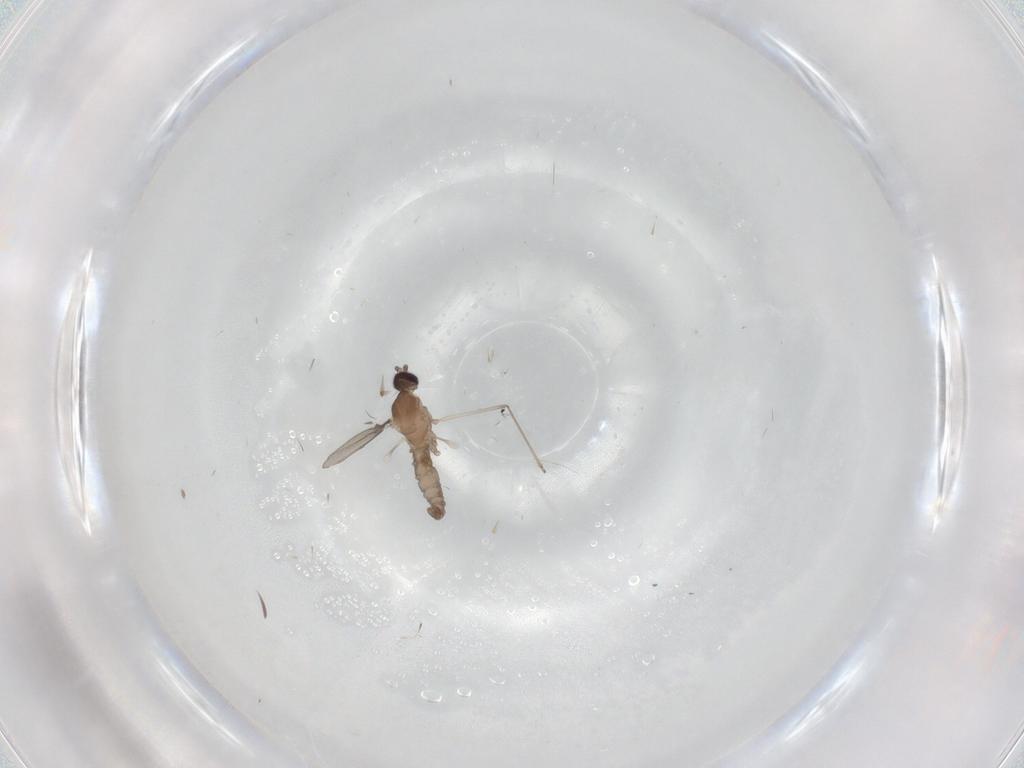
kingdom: Animalia
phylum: Arthropoda
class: Insecta
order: Diptera
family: Cecidomyiidae
